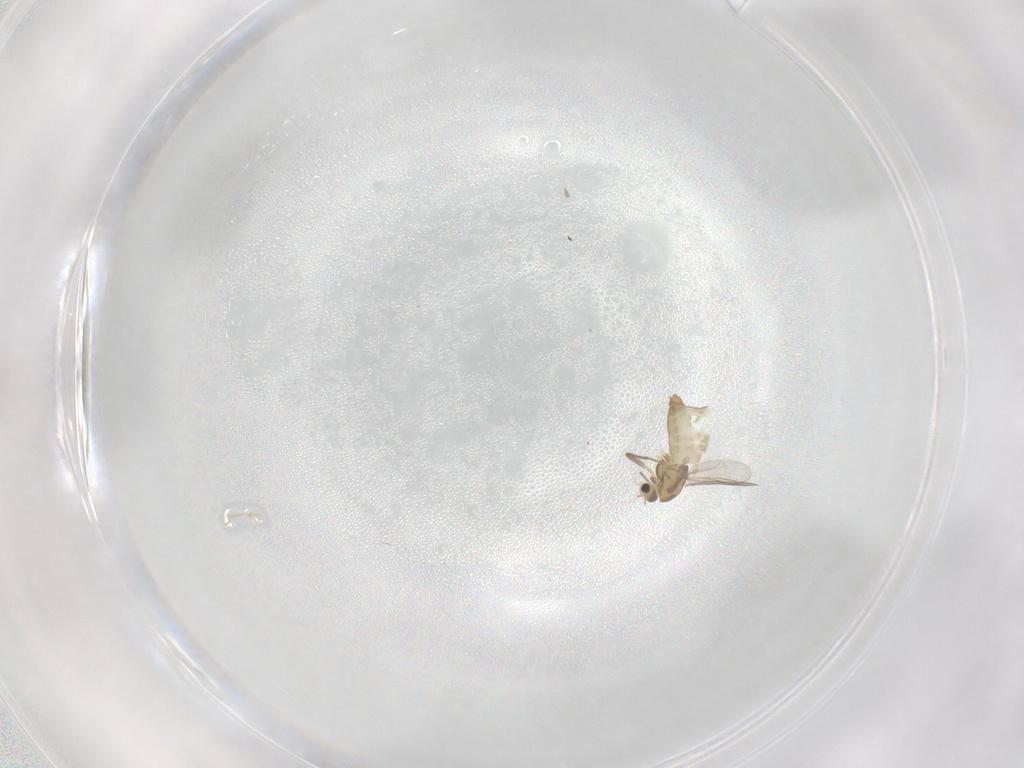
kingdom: Animalia
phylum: Arthropoda
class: Insecta
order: Diptera
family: Chironomidae
